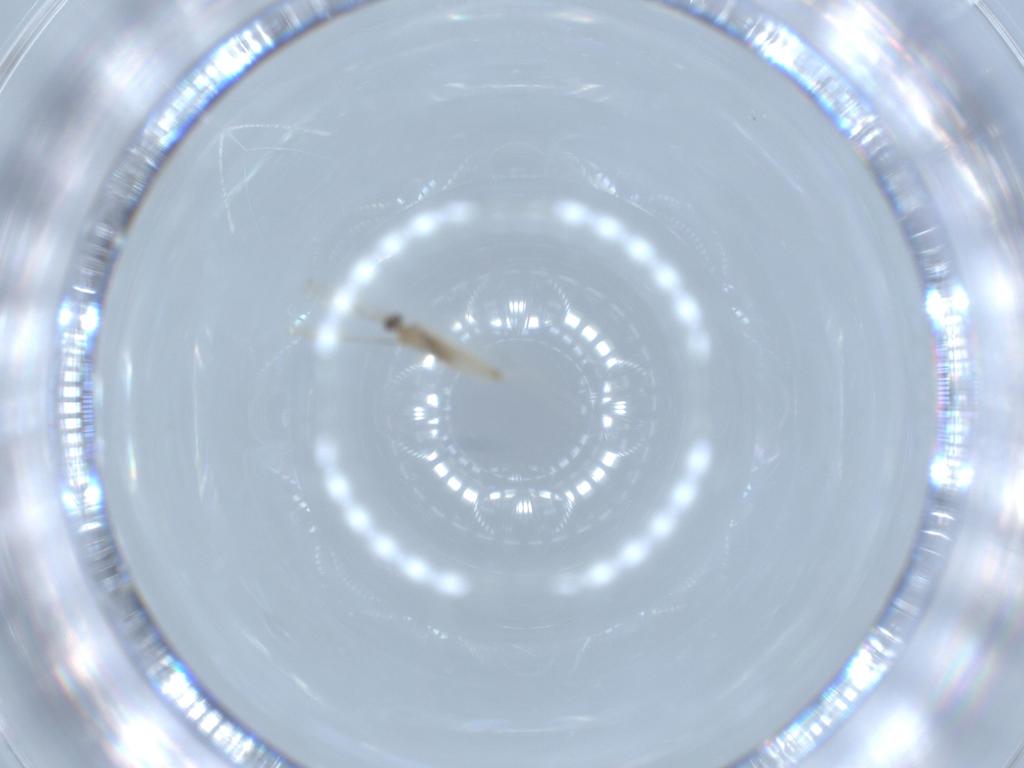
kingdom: Animalia
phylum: Arthropoda
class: Insecta
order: Diptera
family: Cecidomyiidae
